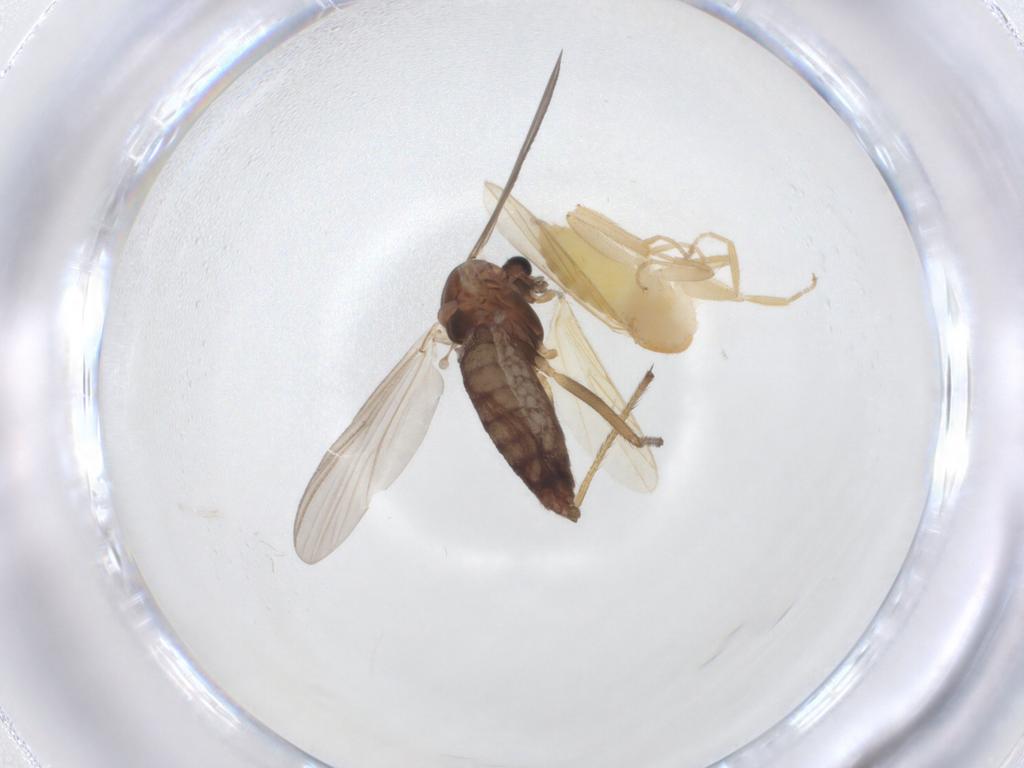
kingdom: Animalia
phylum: Arthropoda
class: Insecta
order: Diptera
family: Chironomidae
